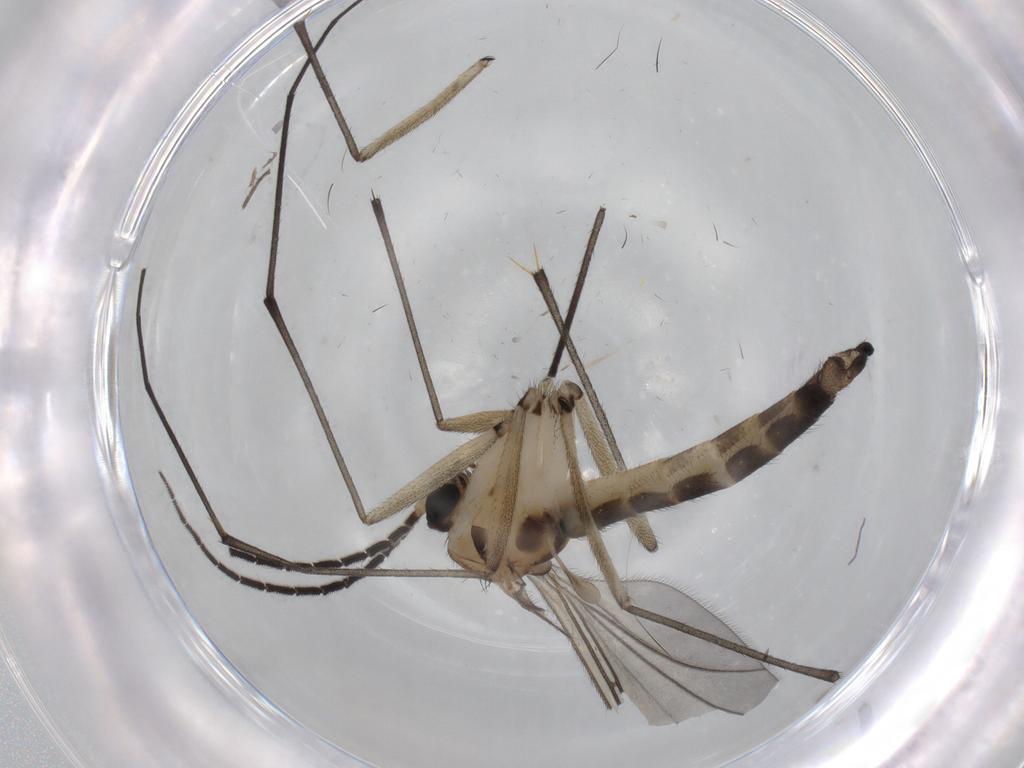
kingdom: Animalia
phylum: Arthropoda
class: Insecta
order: Diptera
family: Sciaridae
